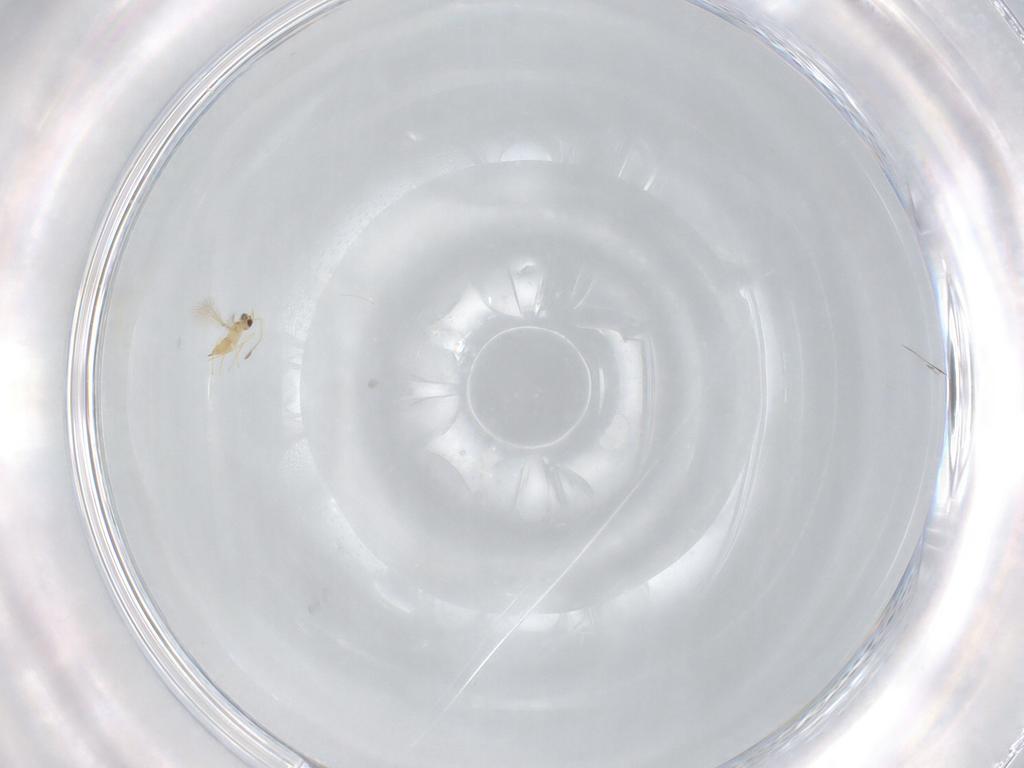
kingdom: Animalia
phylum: Arthropoda
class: Insecta
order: Hymenoptera
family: Mymaridae
